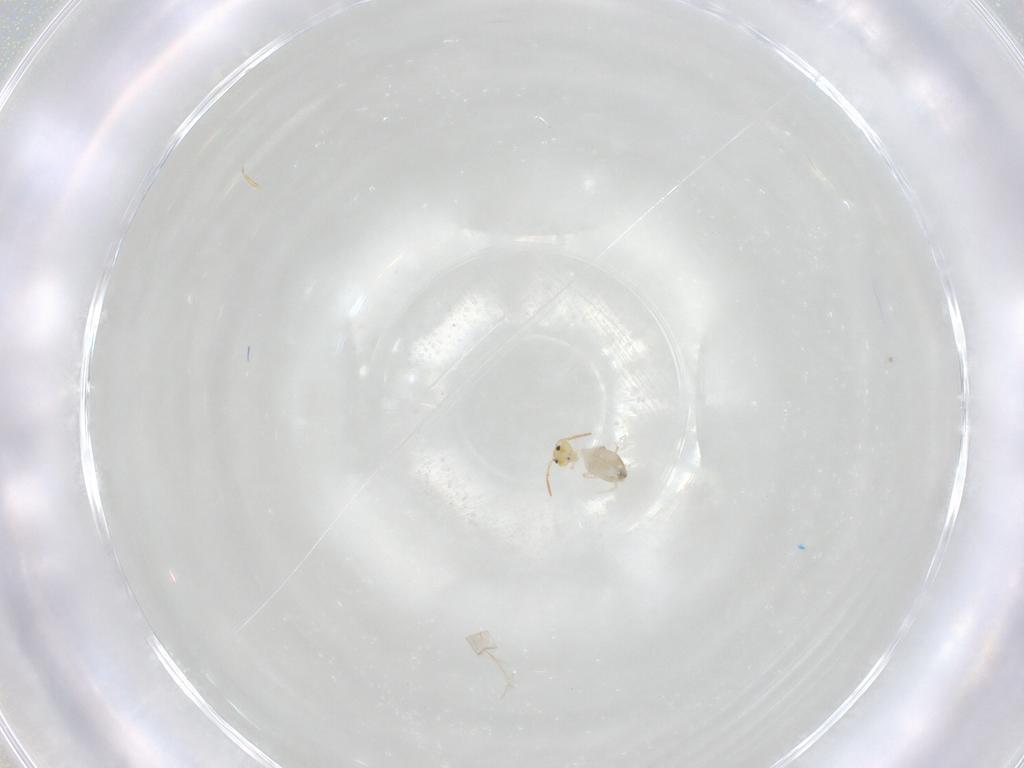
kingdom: Animalia
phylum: Arthropoda
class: Collembola
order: Symphypleona
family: Bourletiellidae
